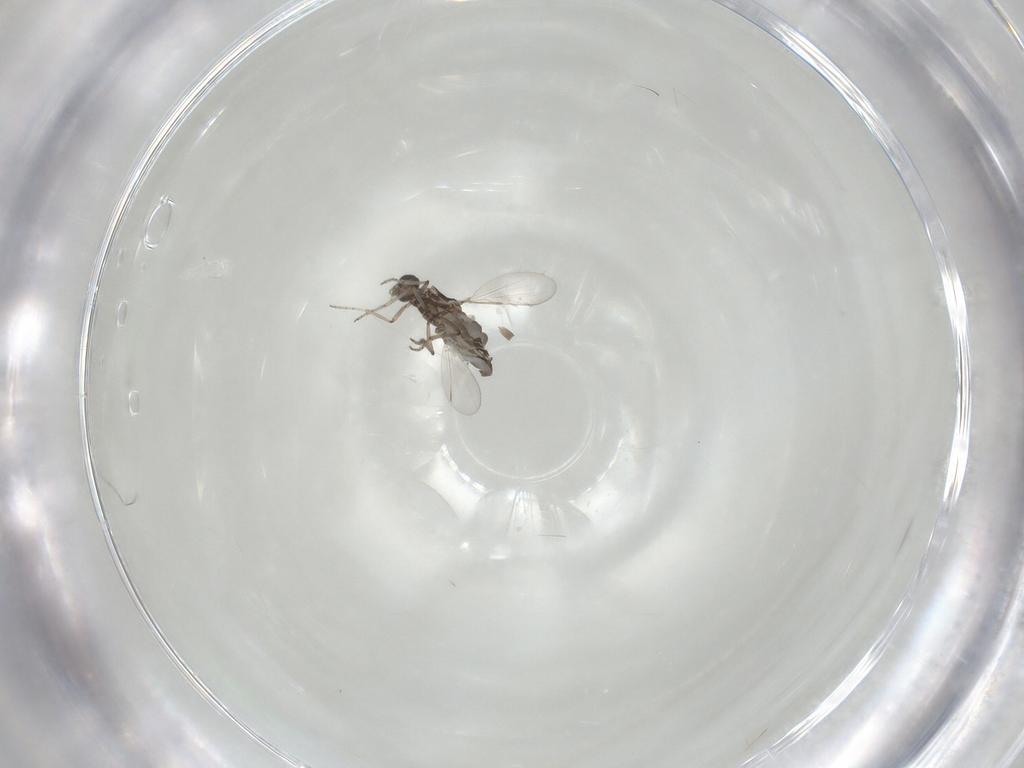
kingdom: Animalia
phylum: Arthropoda
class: Insecta
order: Diptera
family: Ceratopogonidae
